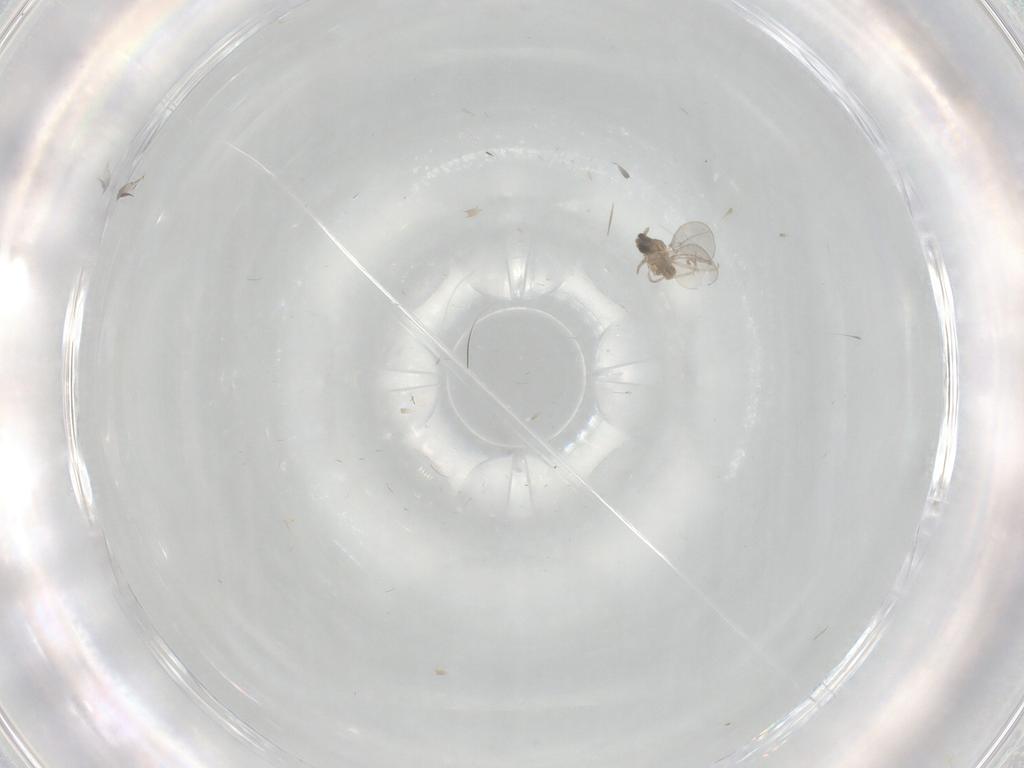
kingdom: Animalia
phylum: Arthropoda
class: Insecta
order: Diptera
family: Cecidomyiidae
